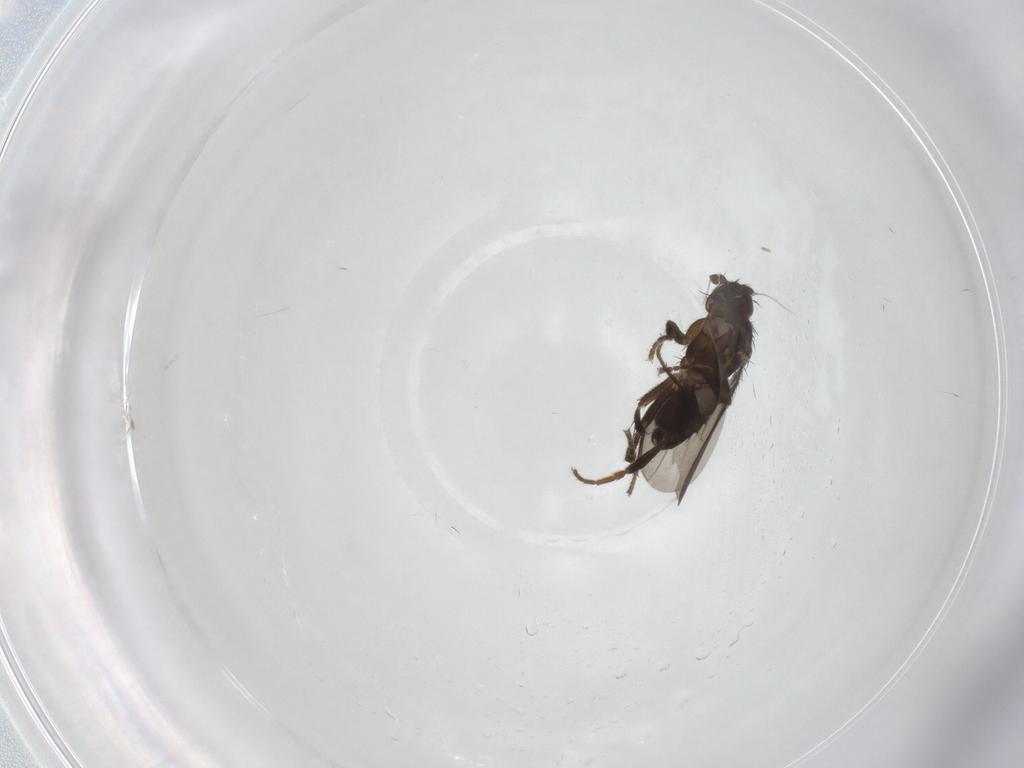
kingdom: Animalia
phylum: Arthropoda
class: Insecta
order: Diptera
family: Sphaeroceridae
